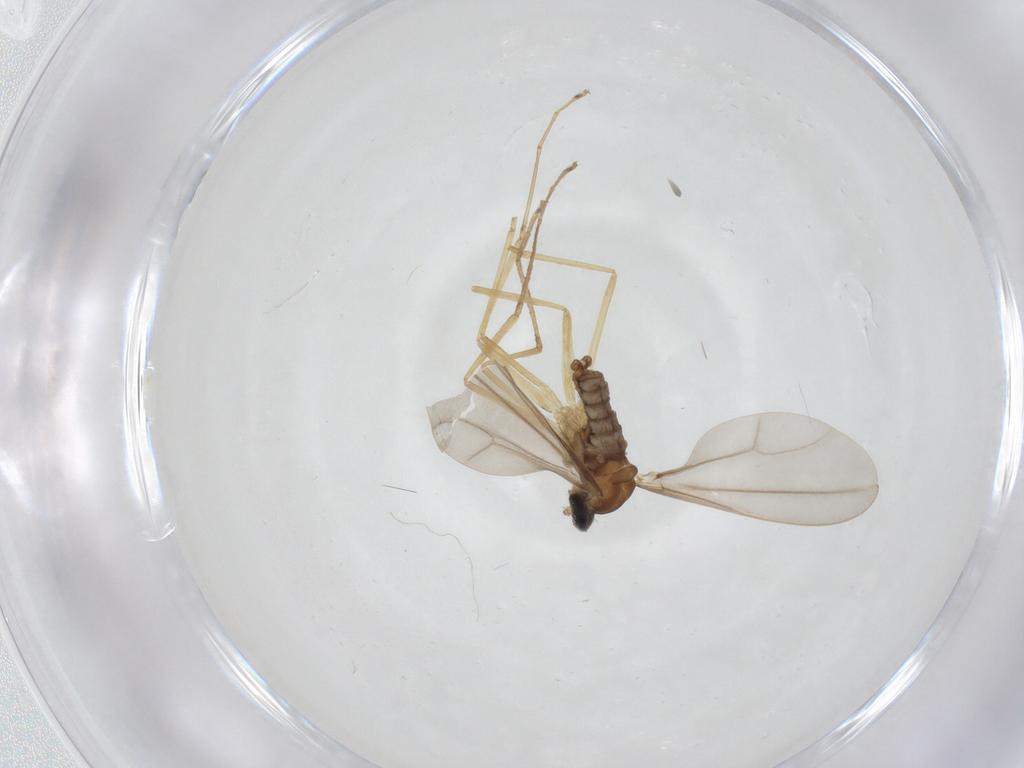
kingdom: Animalia
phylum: Arthropoda
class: Insecta
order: Diptera
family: Cecidomyiidae
